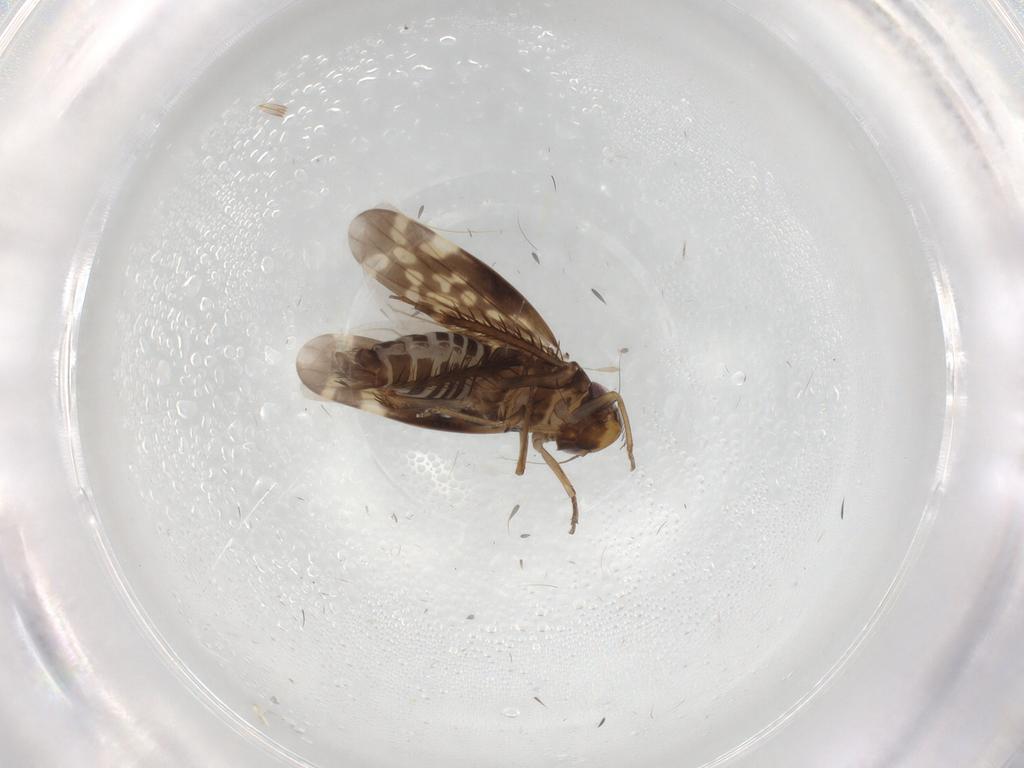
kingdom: Animalia
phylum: Arthropoda
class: Insecta
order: Hemiptera
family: Cicadellidae
